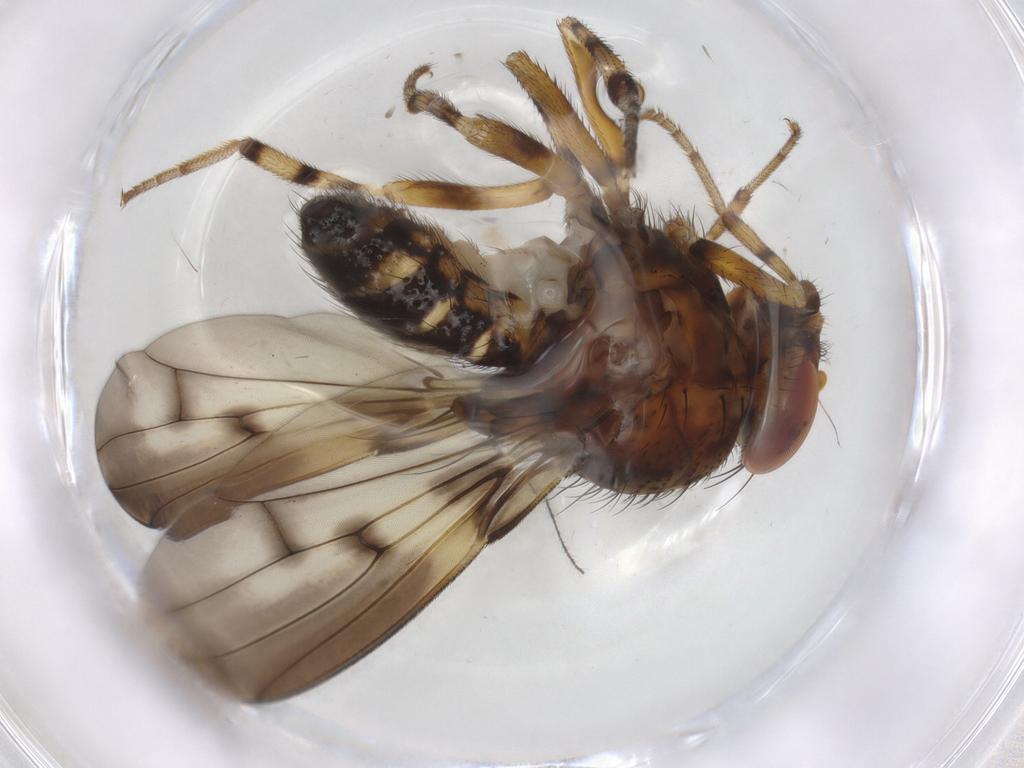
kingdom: Animalia
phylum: Arthropoda
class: Insecta
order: Diptera
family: Drosophilidae
